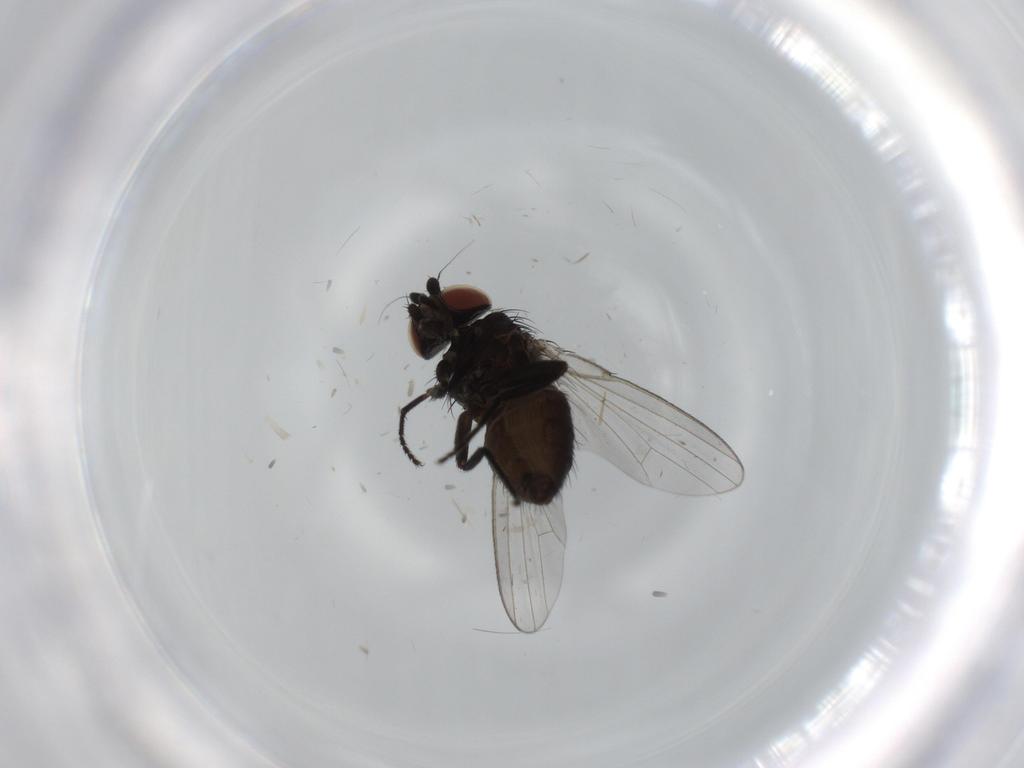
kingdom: Animalia
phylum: Arthropoda
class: Insecta
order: Diptera
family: Milichiidae
